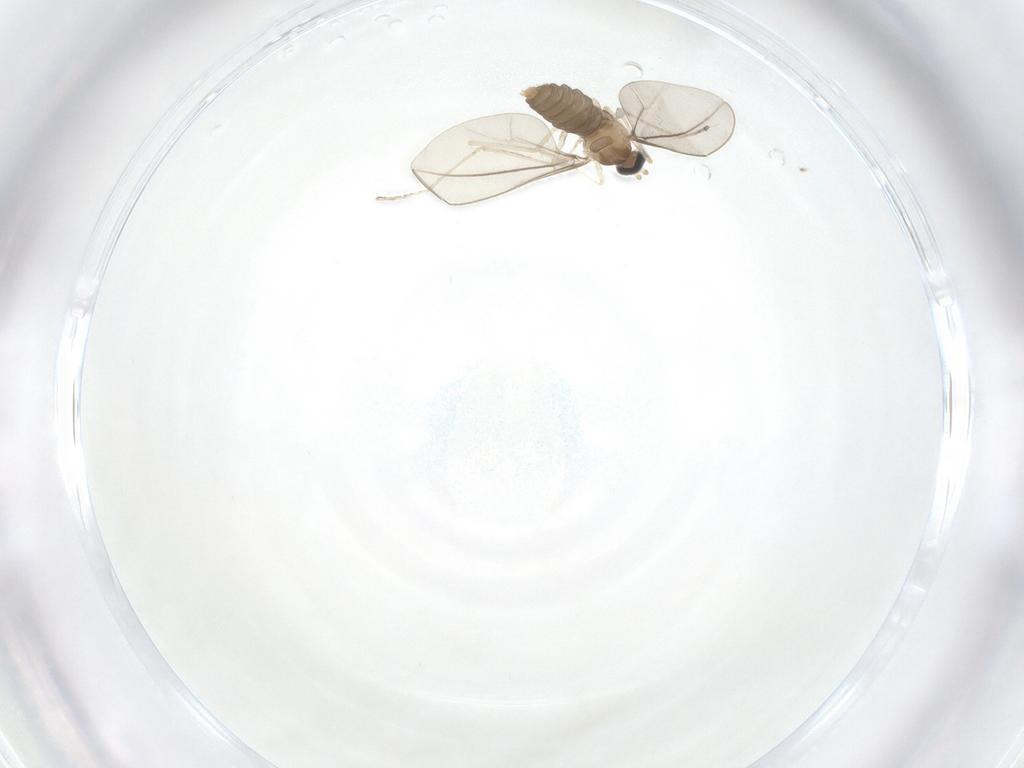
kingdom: Animalia
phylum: Arthropoda
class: Insecta
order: Diptera
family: Cecidomyiidae
